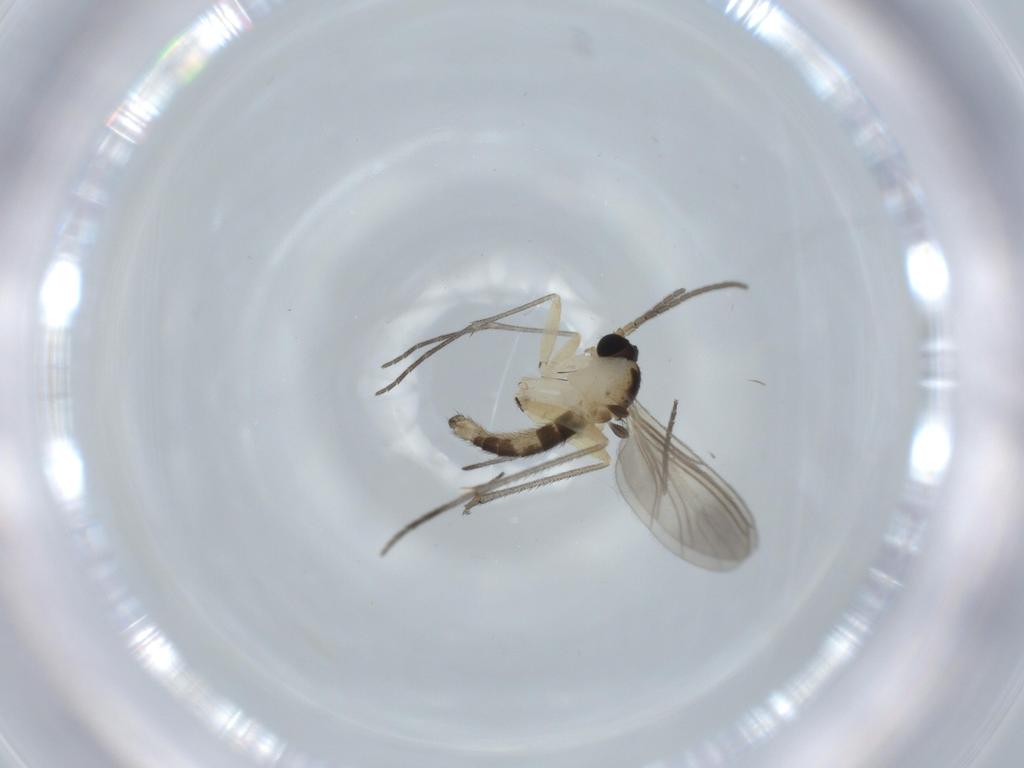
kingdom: Animalia
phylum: Arthropoda
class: Insecta
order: Diptera
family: Sciaridae
